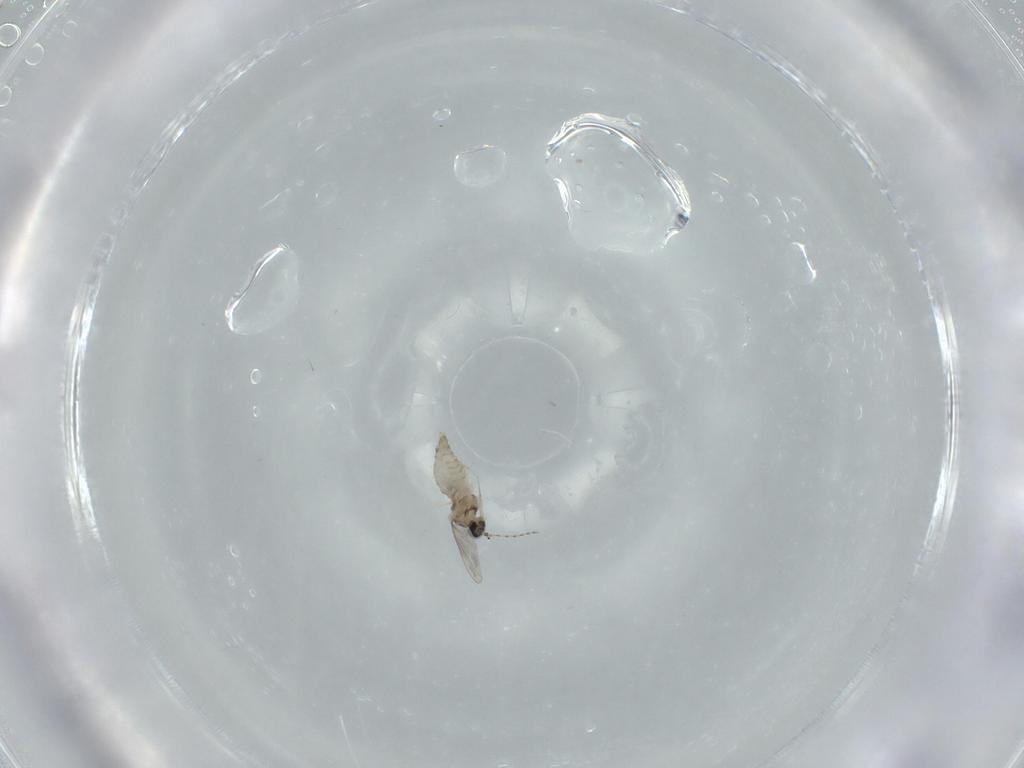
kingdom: Animalia
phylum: Arthropoda
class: Insecta
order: Diptera
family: Cecidomyiidae
